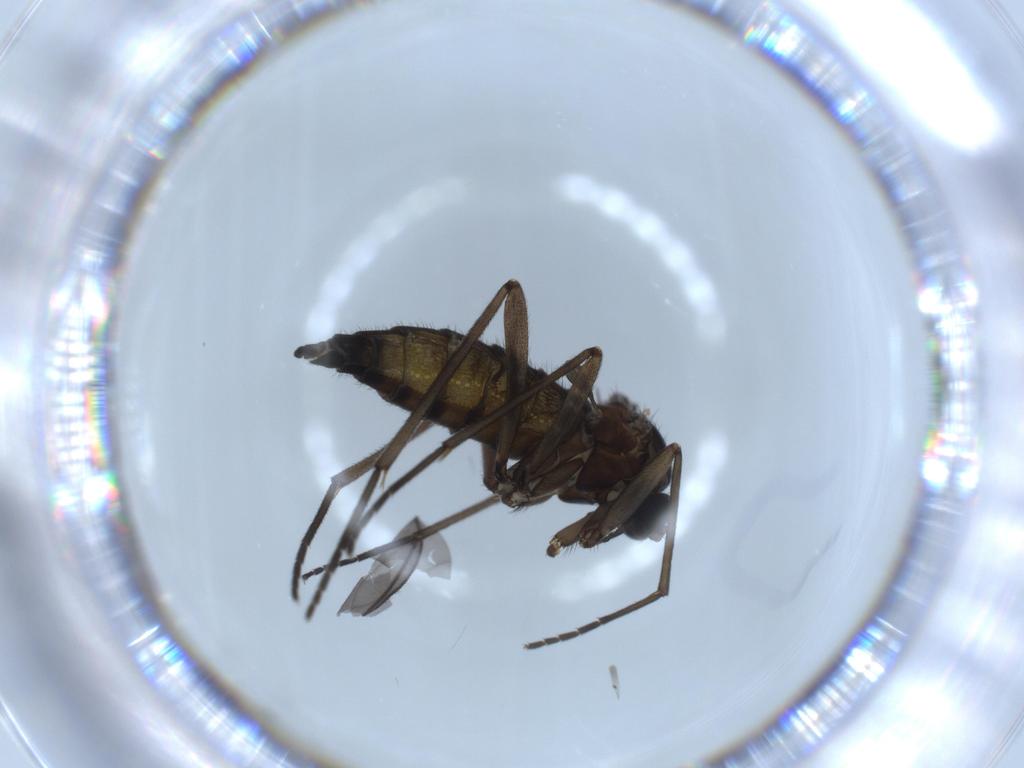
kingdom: Animalia
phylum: Arthropoda
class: Insecta
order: Diptera
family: Sciaridae
